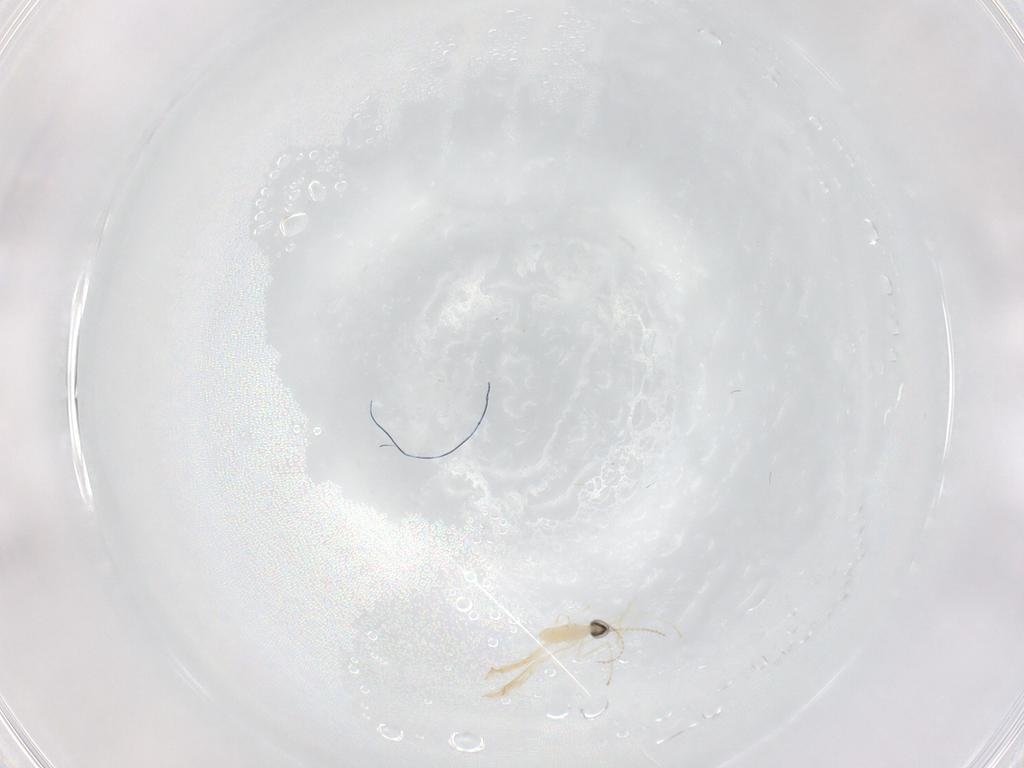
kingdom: Animalia
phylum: Arthropoda
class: Insecta
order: Diptera
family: Cecidomyiidae
